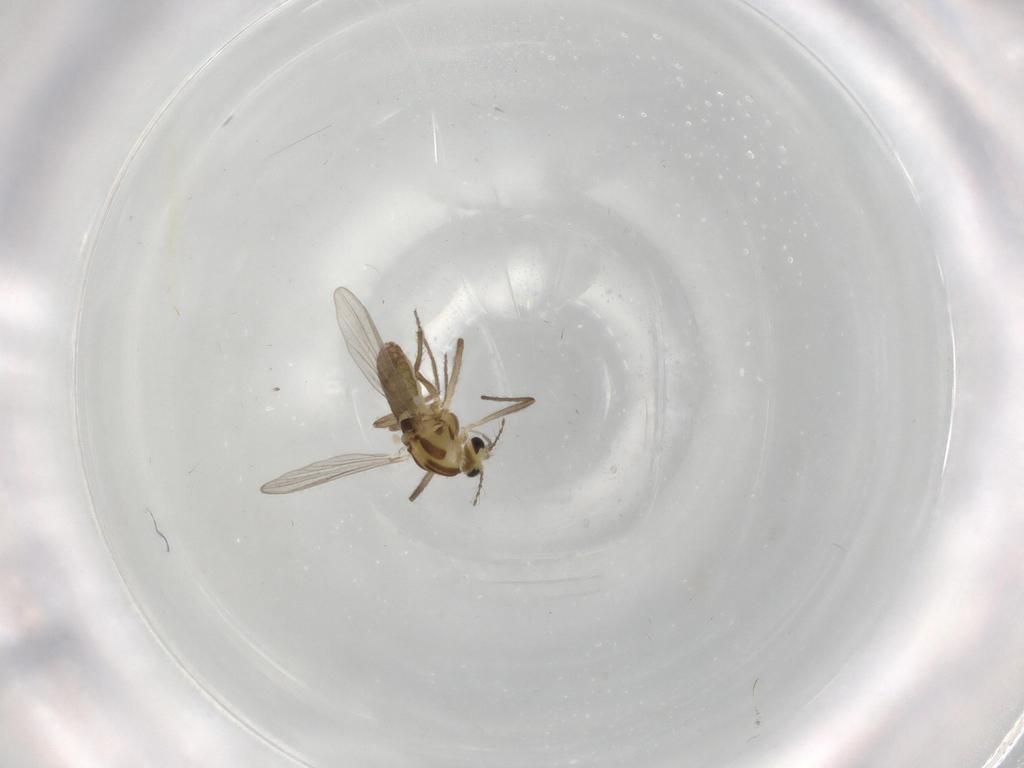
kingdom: Animalia
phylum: Arthropoda
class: Insecta
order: Diptera
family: Chironomidae
